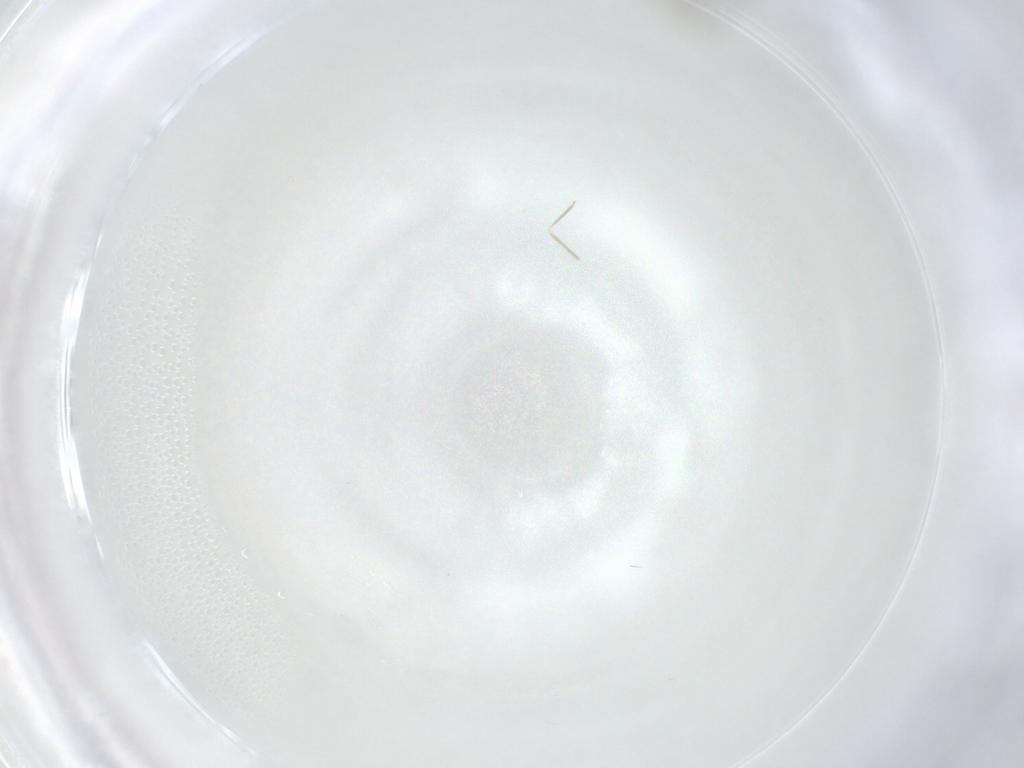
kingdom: Animalia
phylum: Arthropoda
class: Insecta
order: Diptera
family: Cecidomyiidae
